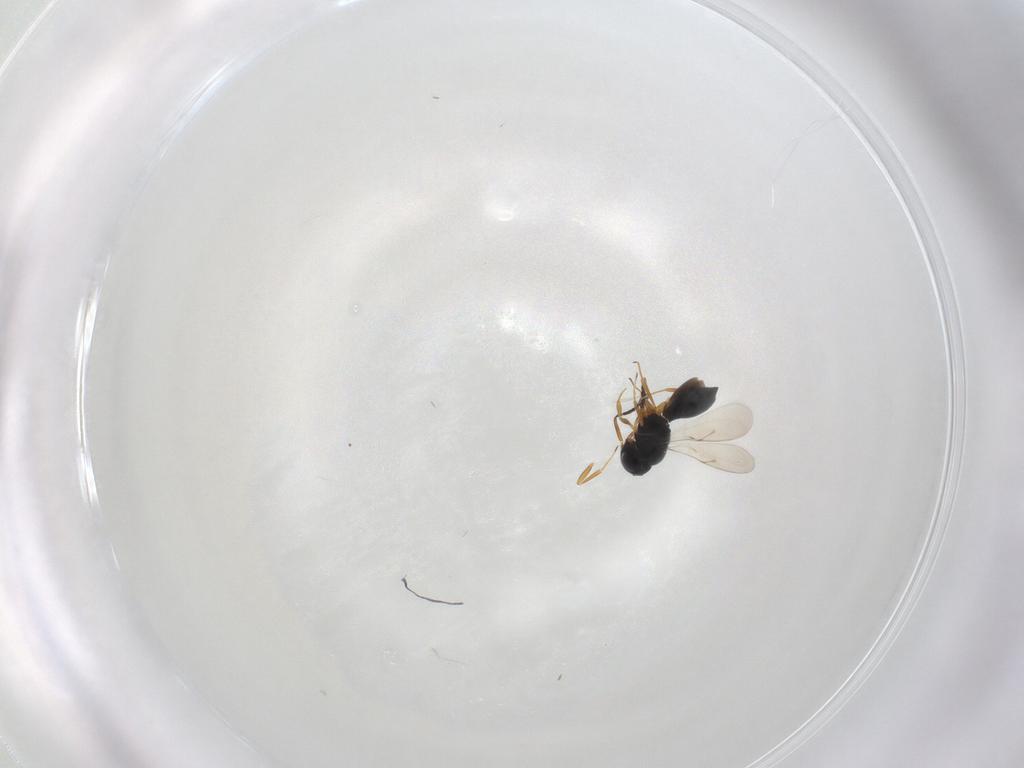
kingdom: Animalia
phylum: Arthropoda
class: Insecta
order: Hymenoptera
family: Scelionidae
